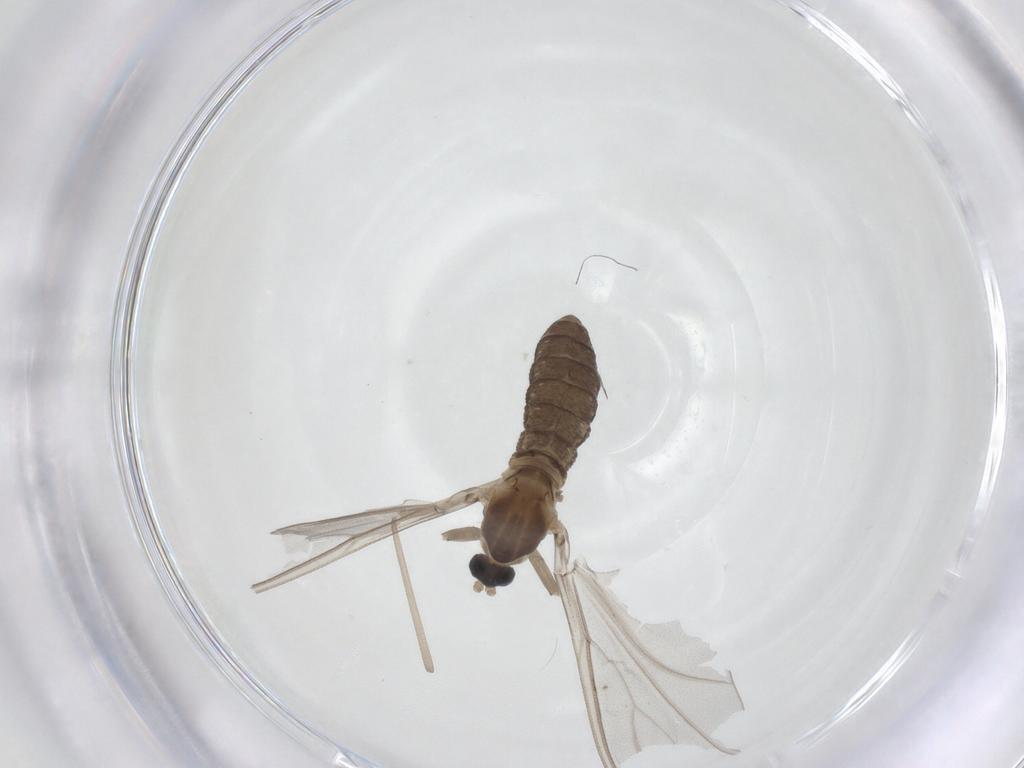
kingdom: Animalia
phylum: Arthropoda
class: Insecta
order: Diptera
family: Cecidomyiidae
